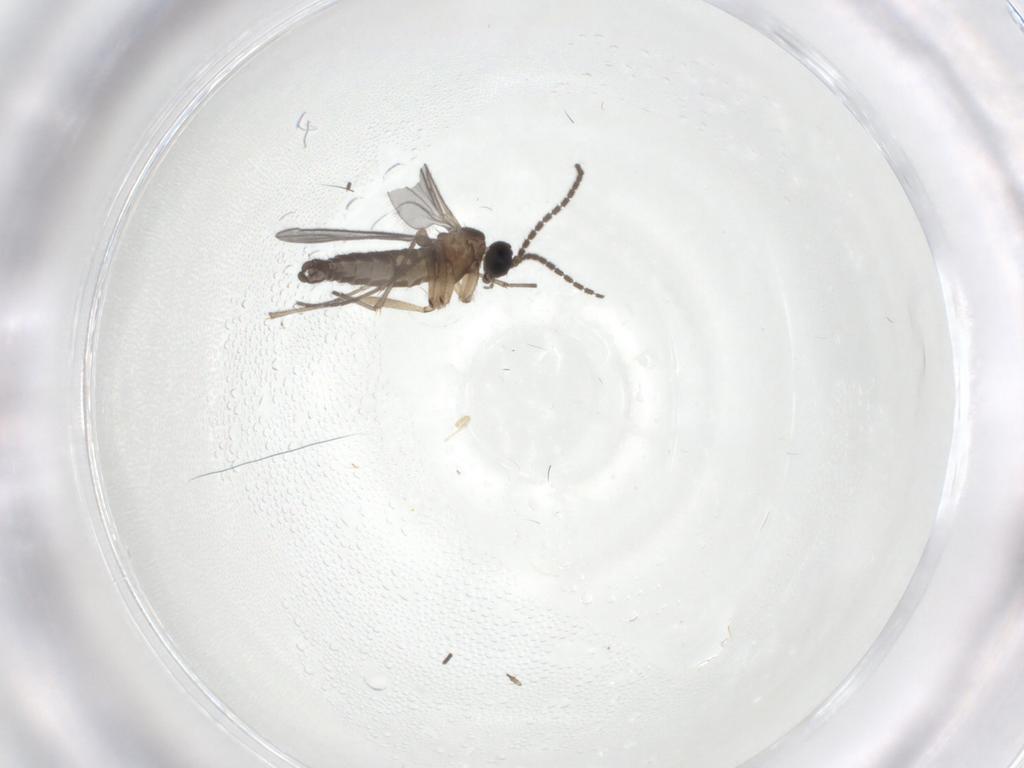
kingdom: Animalia
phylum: Arthropoda
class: Insecta
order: Diptera
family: Sciaridae
